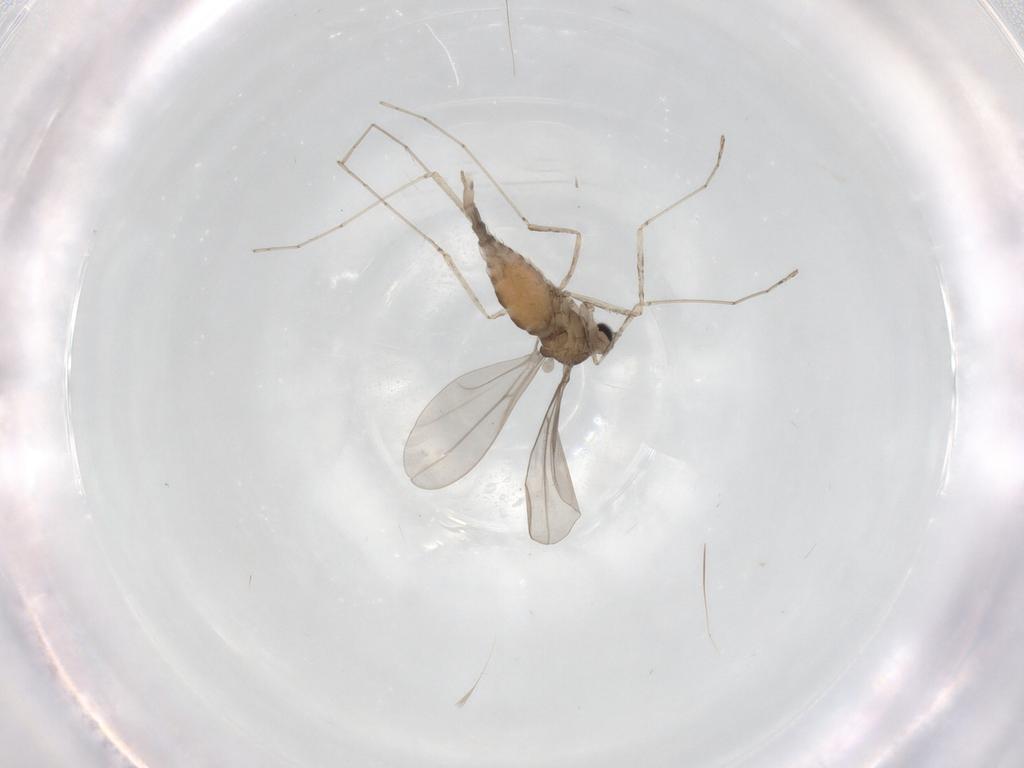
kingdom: Animalia
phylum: Arthropoda
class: Insecta
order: Diptera
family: Cecidomyiidae
